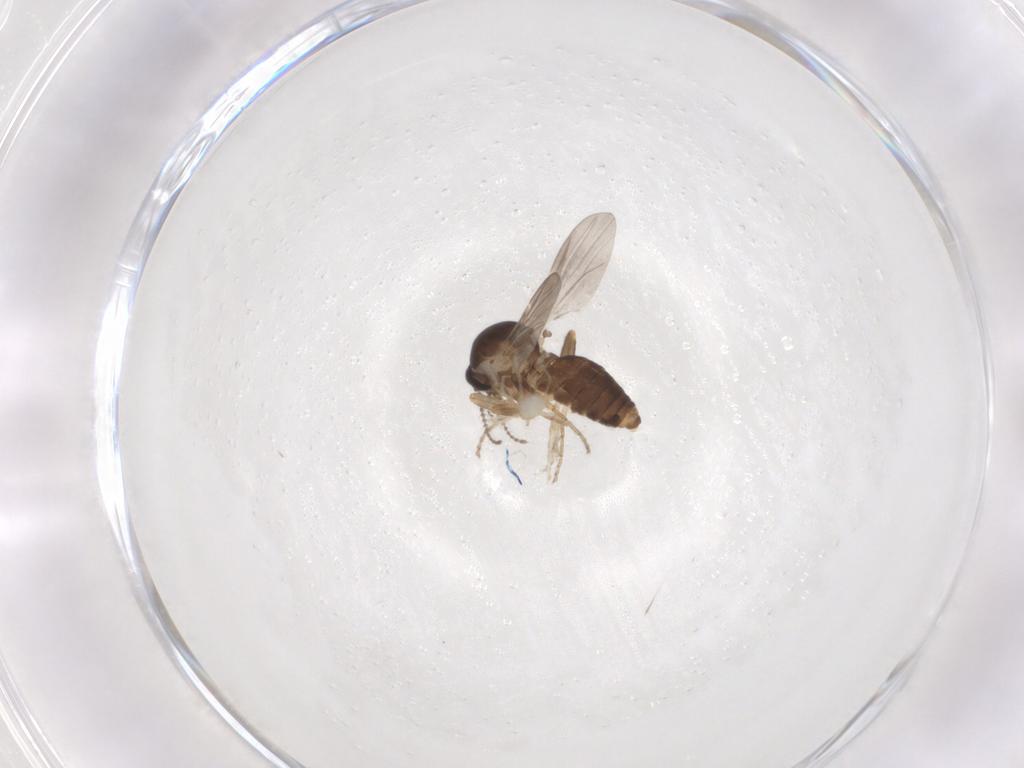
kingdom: Animalia
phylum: Arthropoda
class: Insecta
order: Diptera
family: Ceratopogonidae
